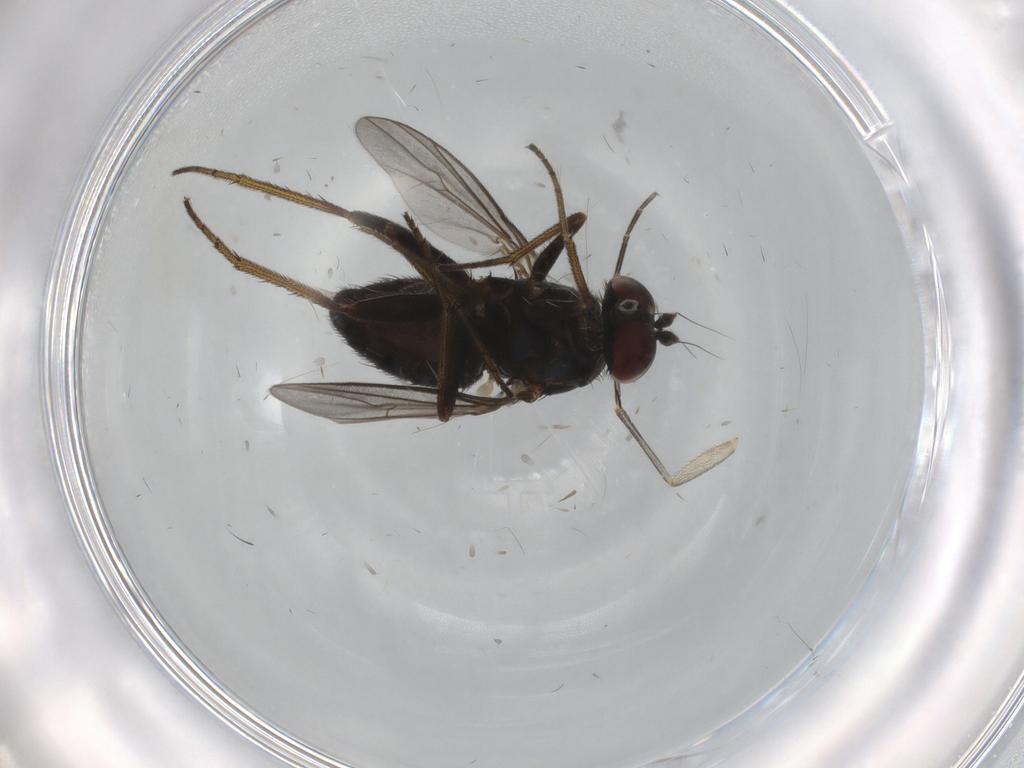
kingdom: Animalia
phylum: Arthropoda
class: Insecta
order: Diptera
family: Dolichopodidae
